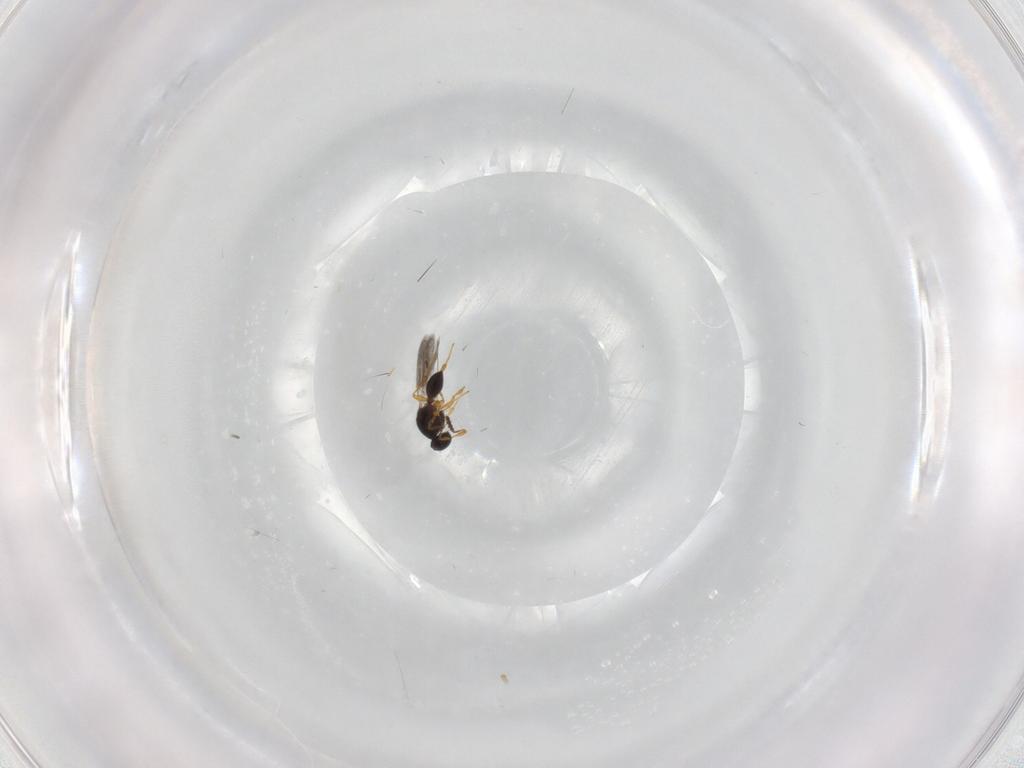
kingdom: Animalia
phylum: Arthropoda
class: Insecta
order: Hymenoptera
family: Platygastridae
